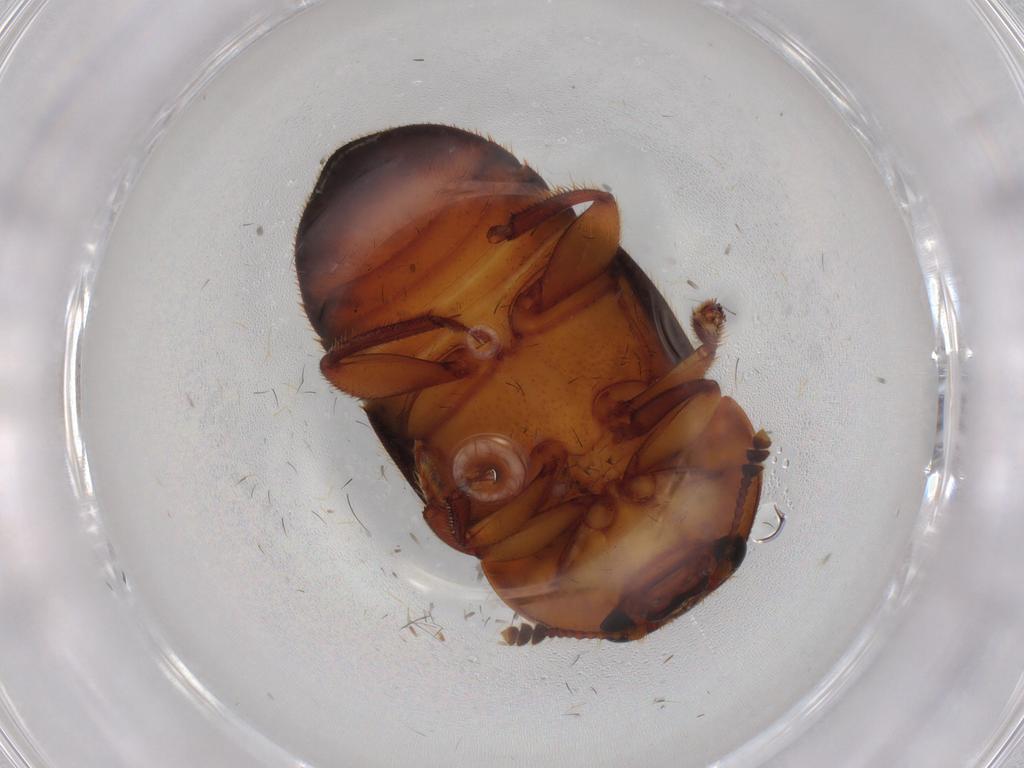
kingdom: Animalia
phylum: Arthropoda
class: Insecta
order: Coleoptera
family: Nitidulidae
